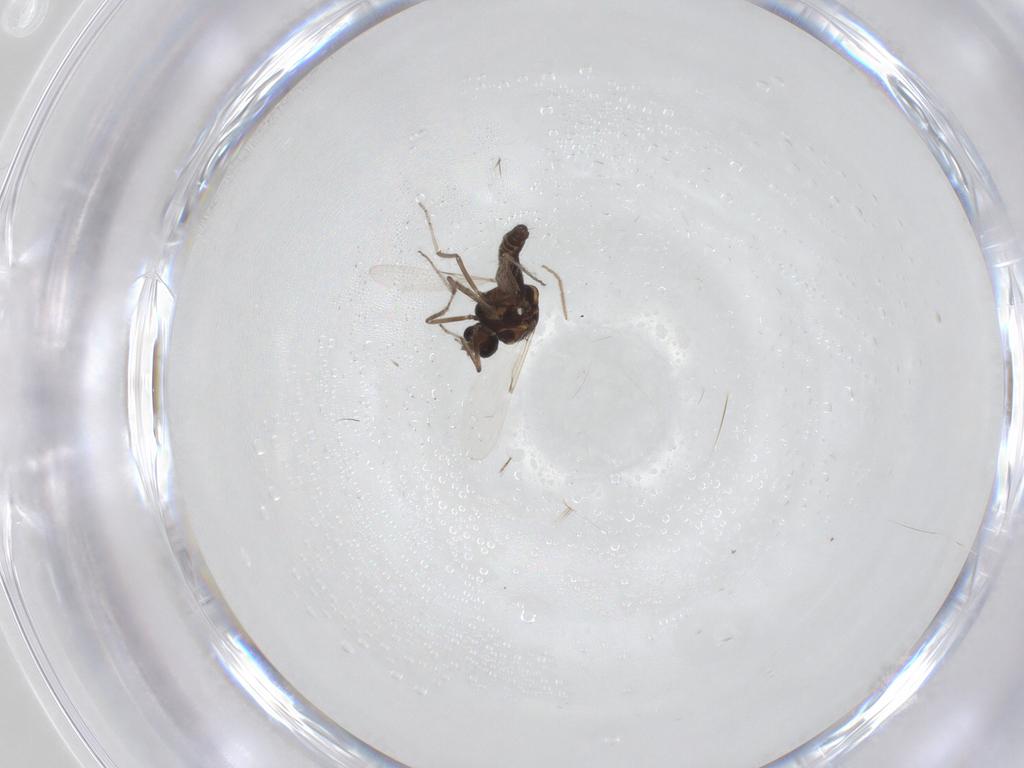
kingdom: Animalia
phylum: Arthropoda
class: Insecta
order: Diptera
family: Ceratopogonidae
